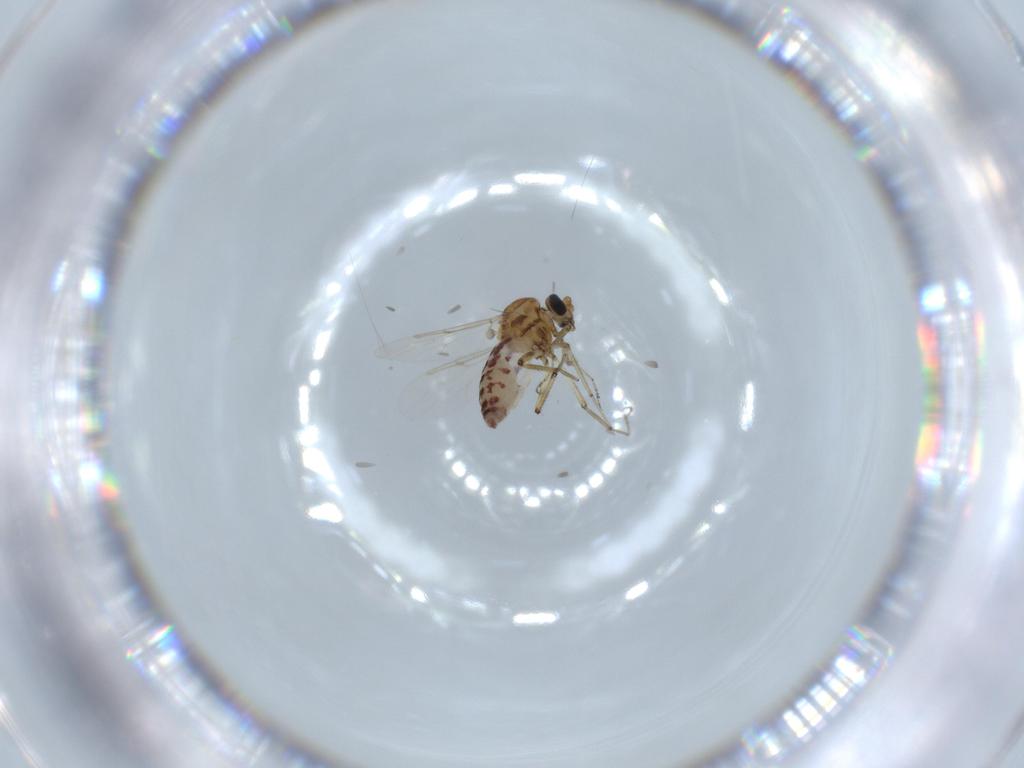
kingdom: Animalia
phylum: Arthropoda
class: Insecta
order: Diptera
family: Ceratopogonidae
